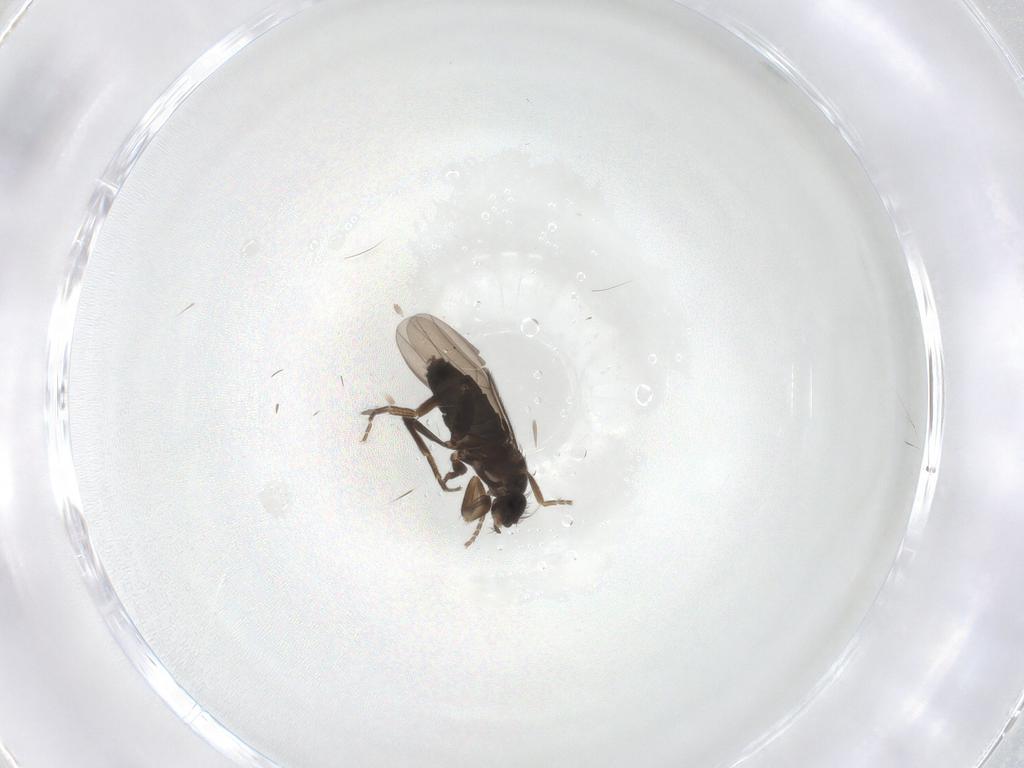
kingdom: Animalia
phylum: Arthropoda
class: Insecta
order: Diptera
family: Phoridae
